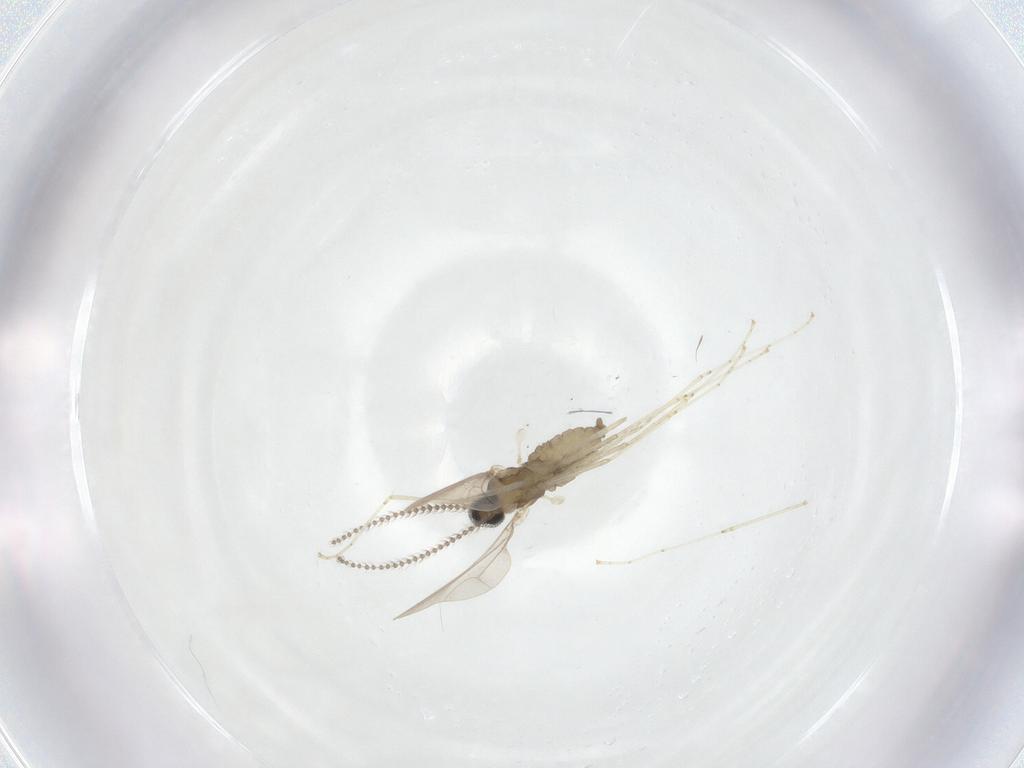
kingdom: Animalia
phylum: Arthropoda
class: Insecta
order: Diptera
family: Cecidomyiidae
